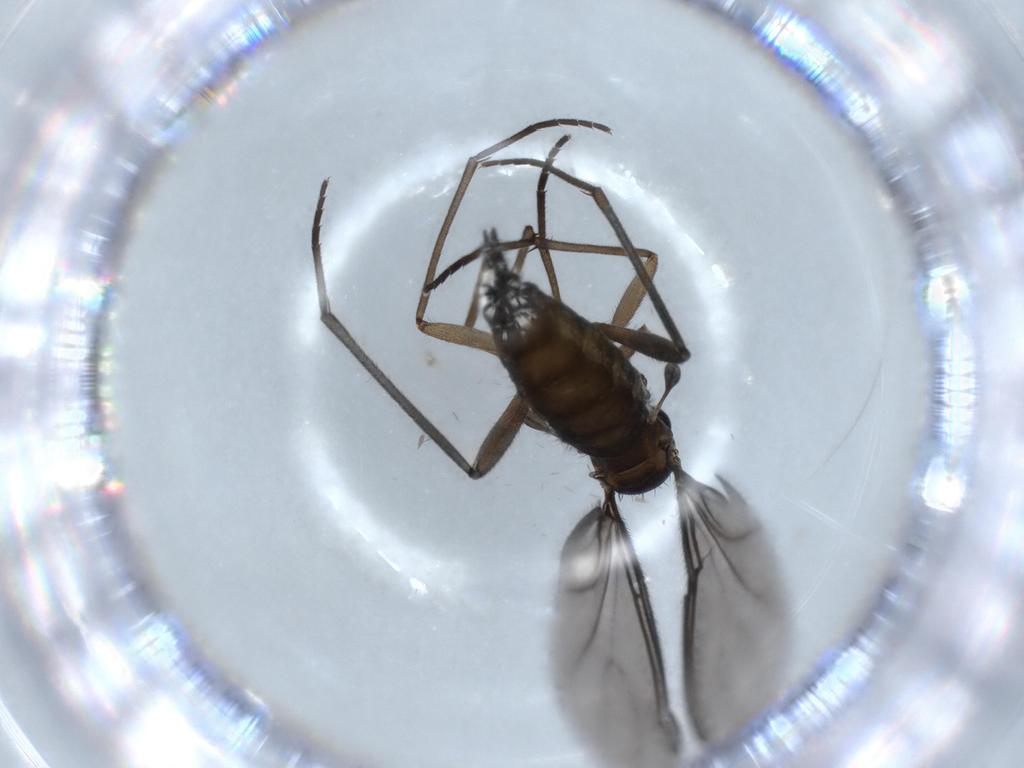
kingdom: Animalia
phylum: Arthropoda
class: Insecta
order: Diptera
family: Sciaridae
